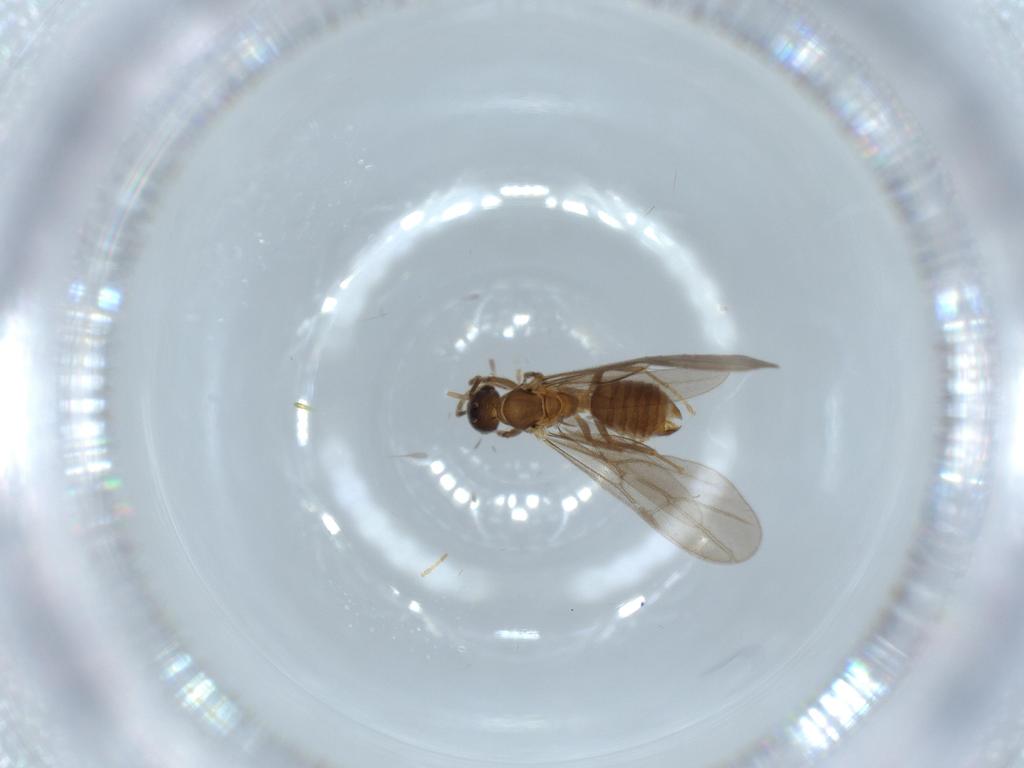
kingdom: Animalia
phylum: Arthropoda
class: Insecta
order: Hymenoptera
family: Formicidae
